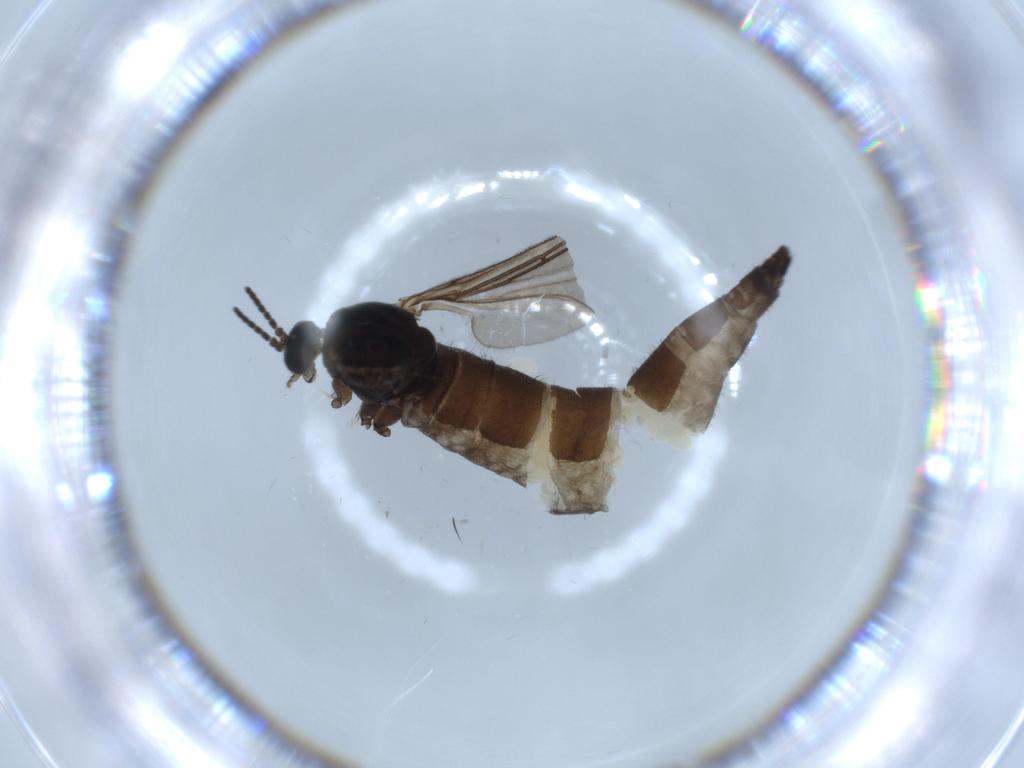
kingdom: Animalia
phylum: Arthropoda
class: Insecta
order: Diptera
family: Sciaridae
